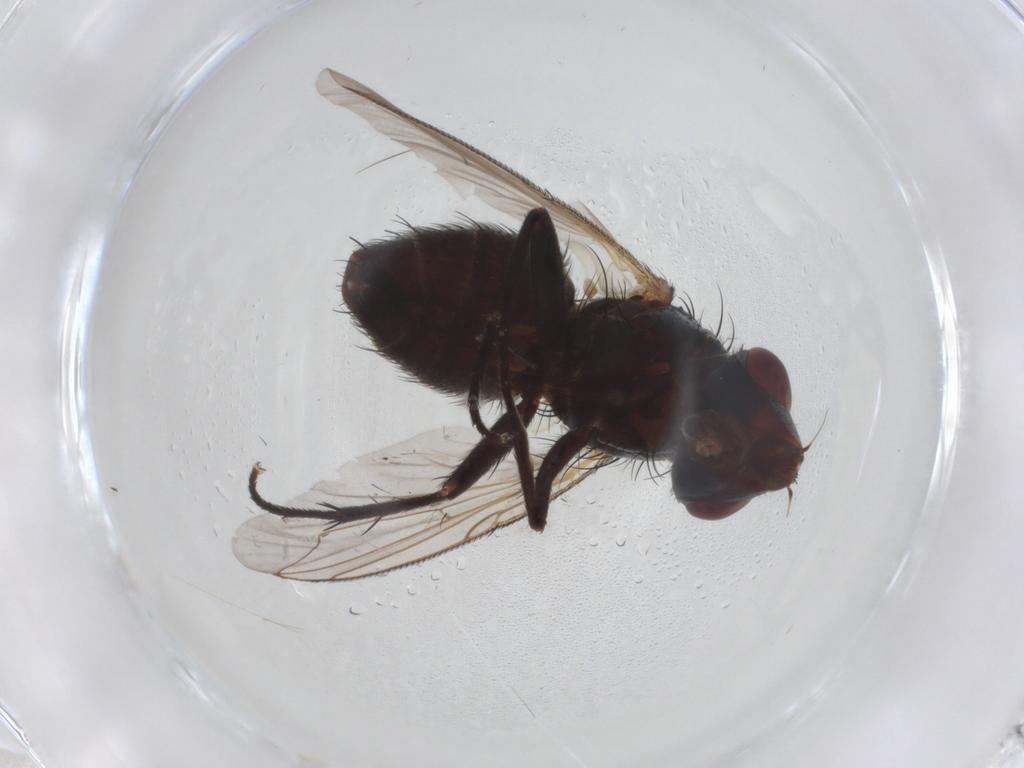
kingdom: Animalia
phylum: Arthropoda
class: Insecta
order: Diptera
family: Sarcophagidae
